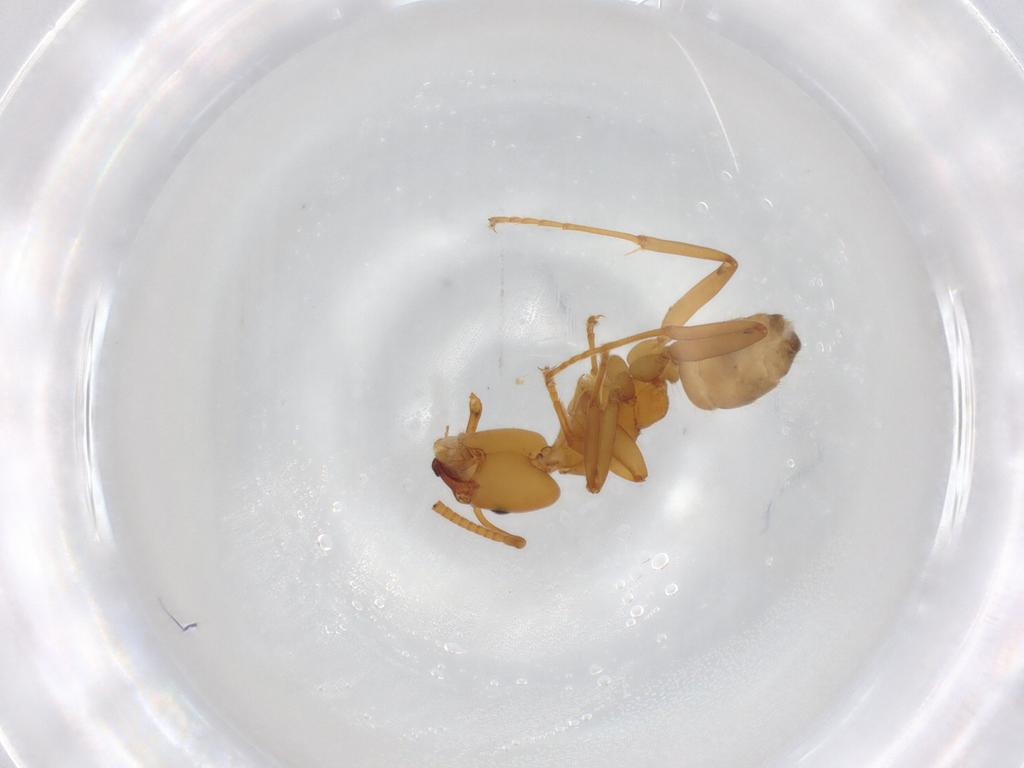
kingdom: Animalia
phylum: Arthropoda
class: Insecta
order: Hymenoptera
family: Formicidae
